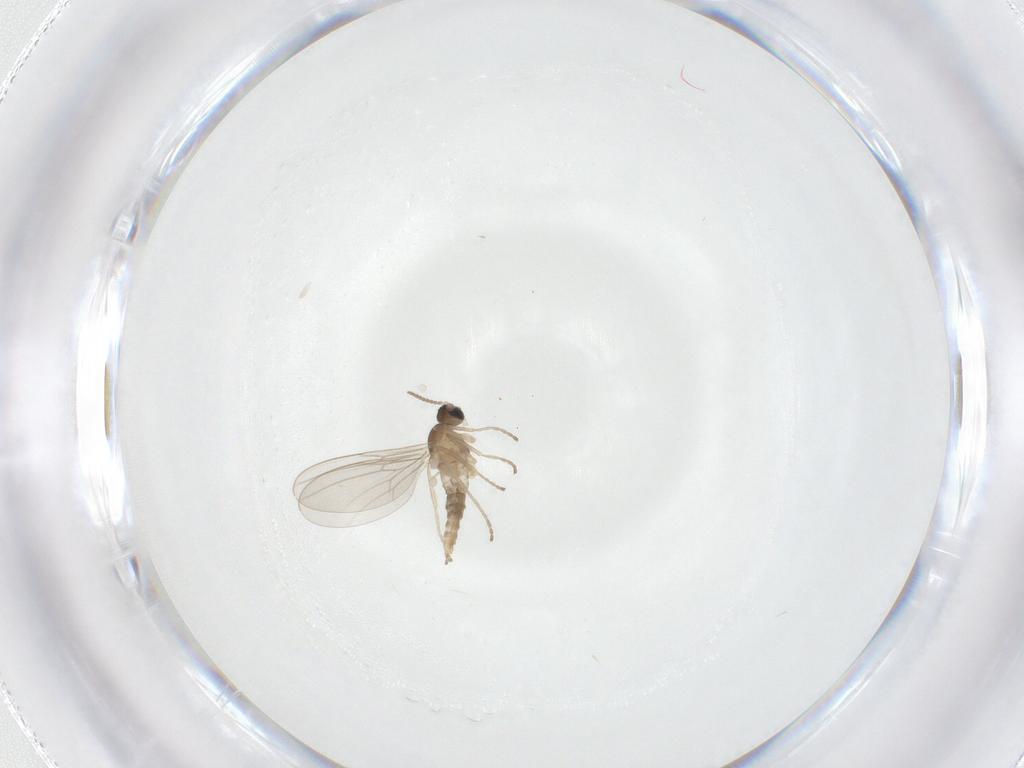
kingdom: Animalia
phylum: Arthropoda
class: Insecta
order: Diptera
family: Cecidomyiidae
